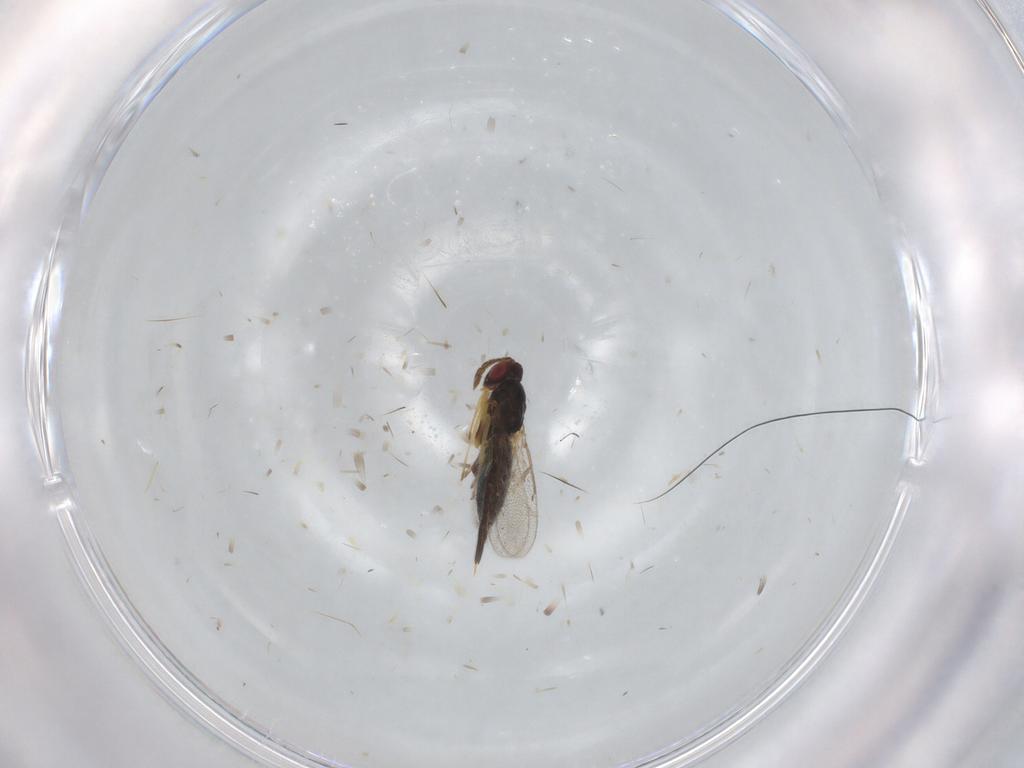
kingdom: Animalia
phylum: Arthropoda
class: Insecta
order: Hymenoptera
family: Eulophidae
